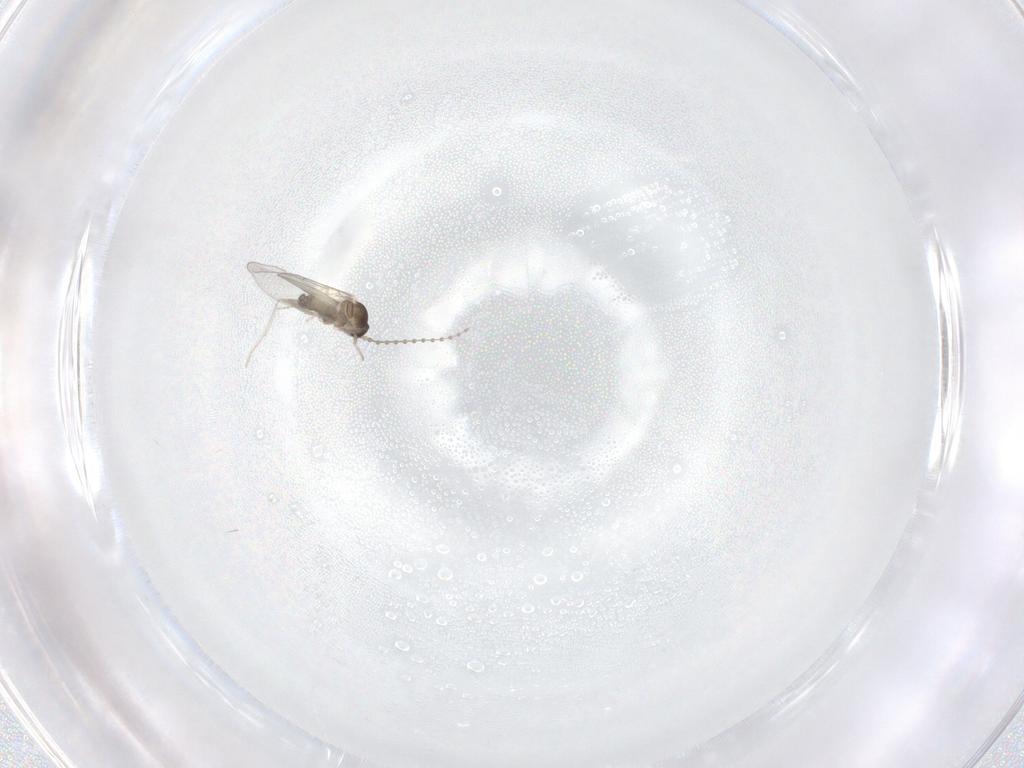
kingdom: Animalia
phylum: Arthropoda
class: Insecta
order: Diptera
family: Cecidomyiidae
